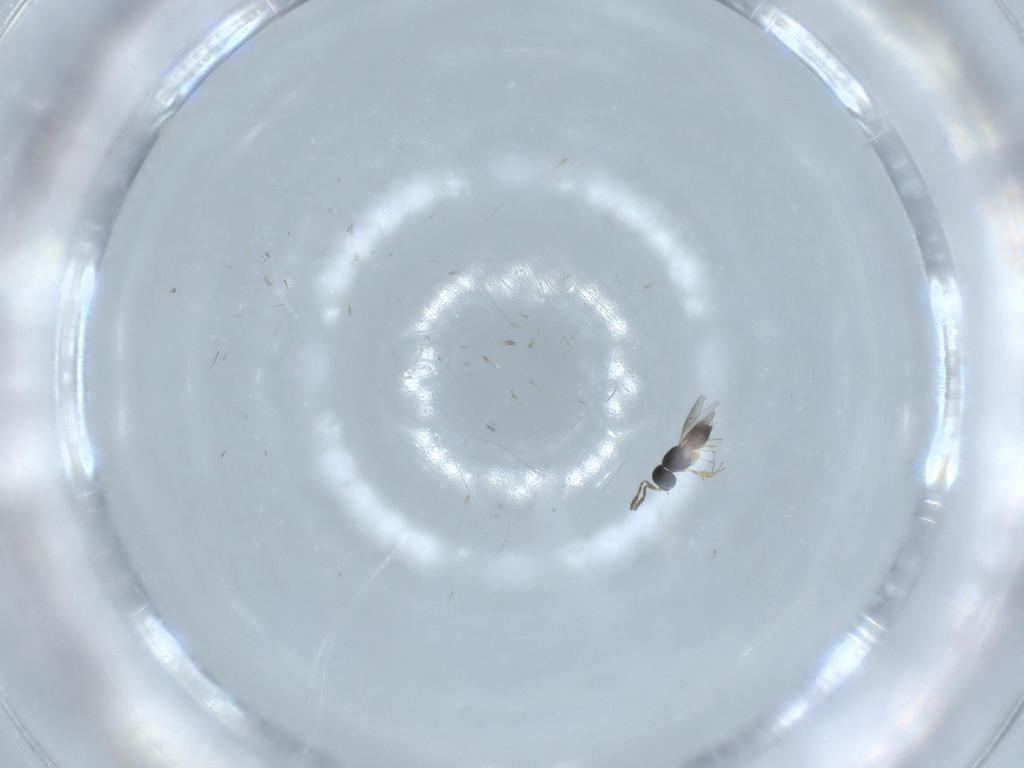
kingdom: Animalia
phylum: Arthropoda
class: Insecta
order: Hymenoptera
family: Scelionidae
